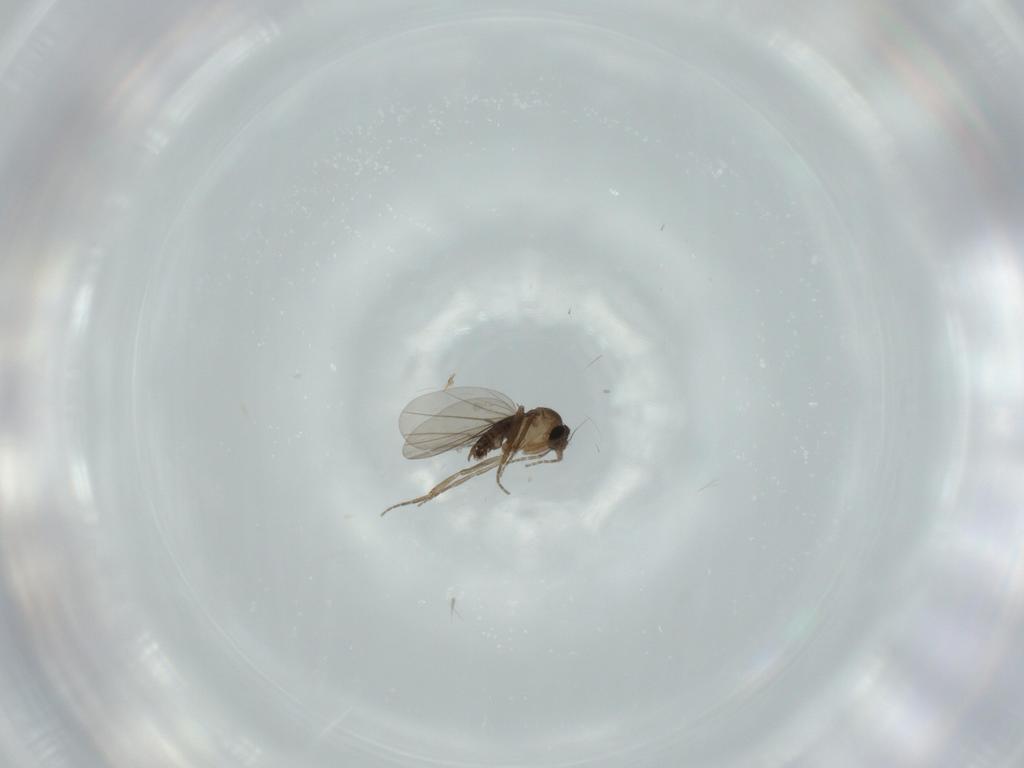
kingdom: Animalia
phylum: Arthropoda
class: Insecta
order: Diptera
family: Phoridae
